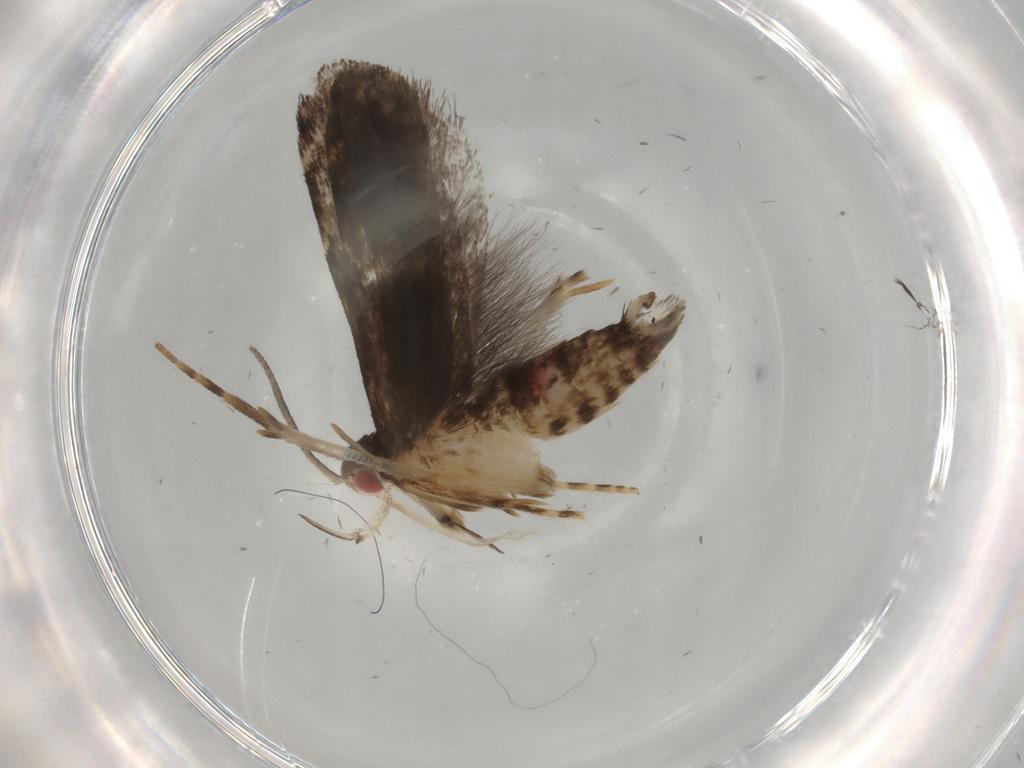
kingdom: Animalia
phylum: Arthropoda
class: Insecta
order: Lepidoptera
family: Gelechiidae
